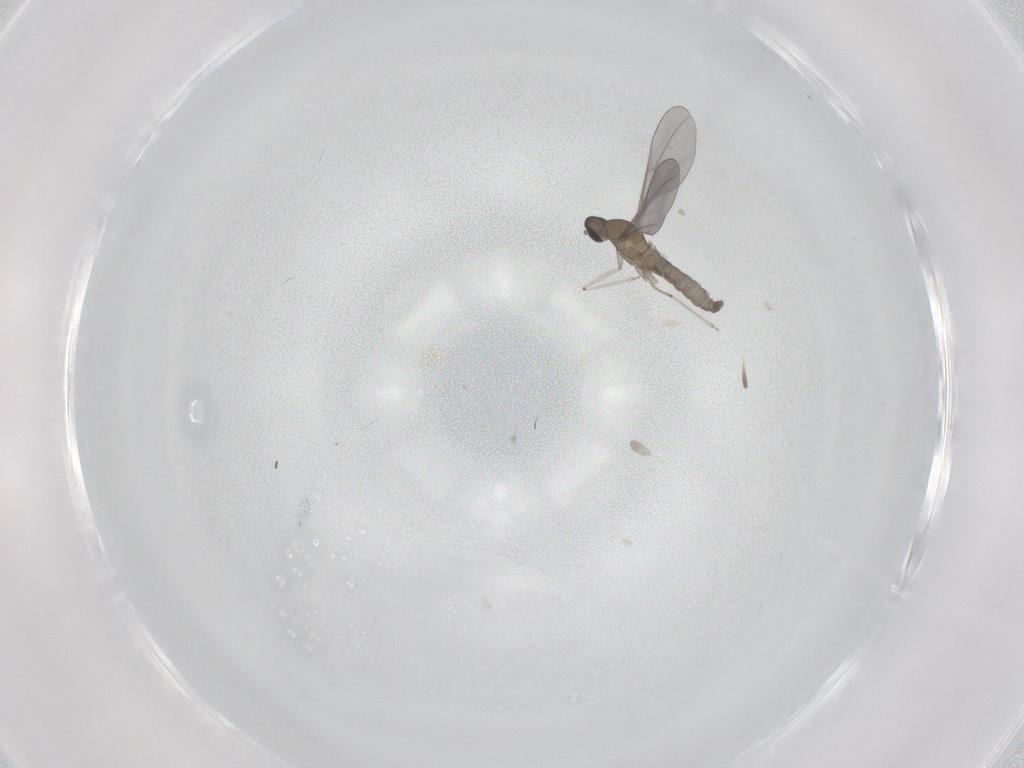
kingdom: Animalia
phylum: Arthropoda
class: Insecta
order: Diptera
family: Cecidomyiidae
